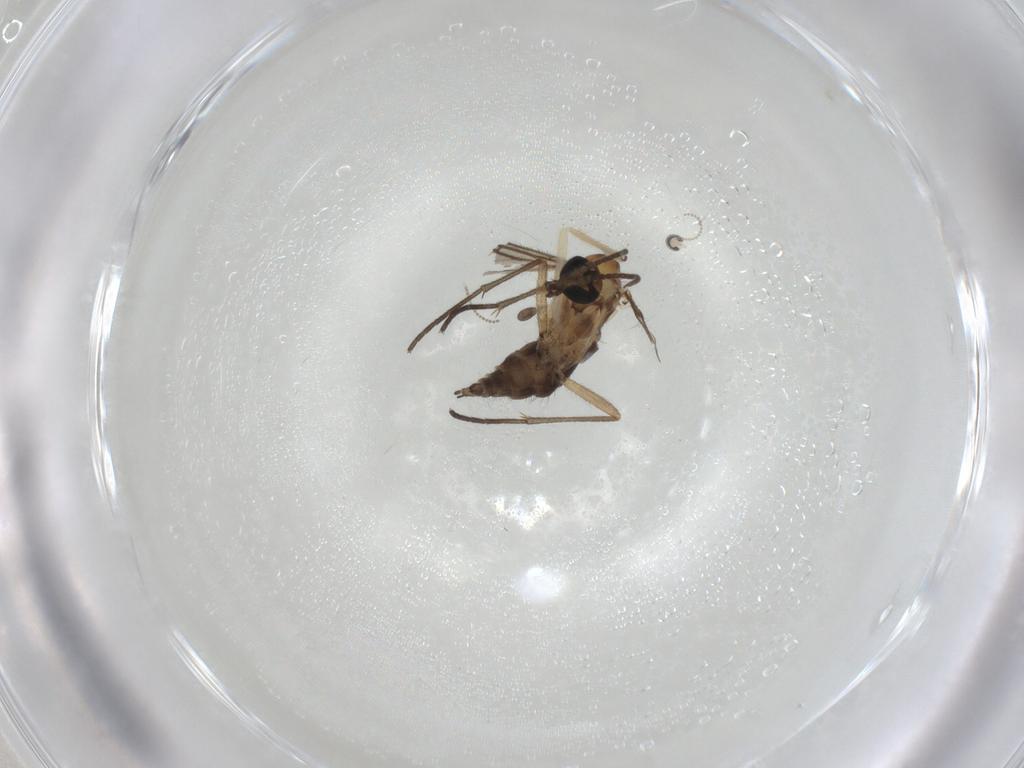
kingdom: Animalia
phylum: Arthropoda
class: Insecta
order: Diptera
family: Sciaridae
